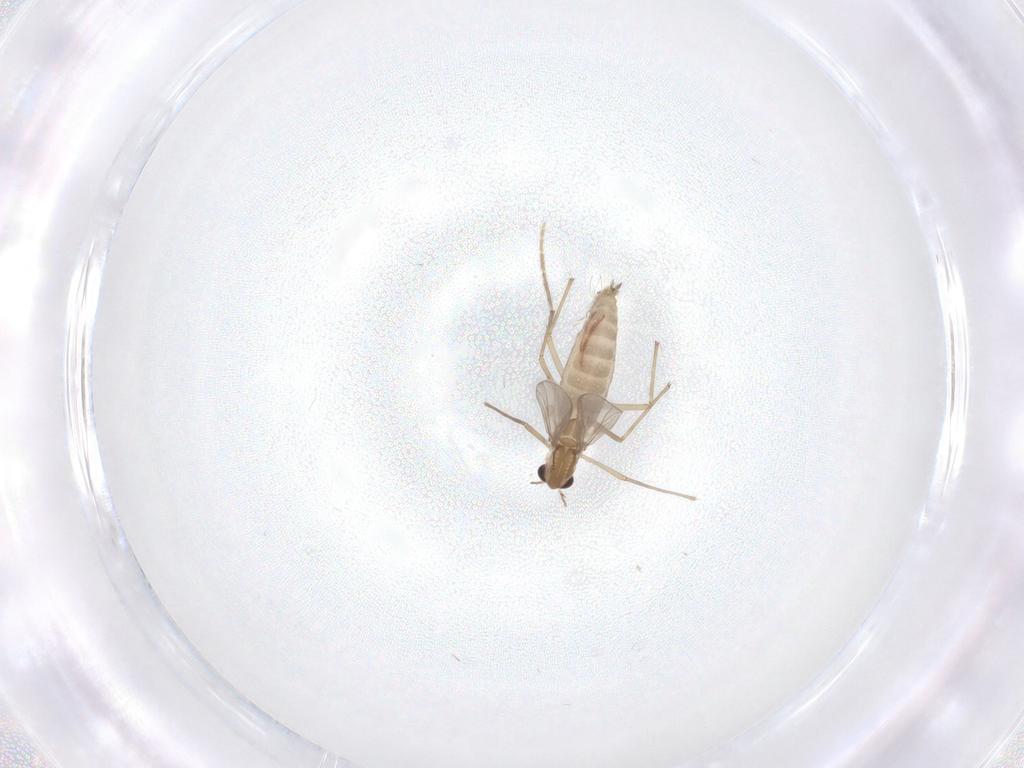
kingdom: Animalia
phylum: Arthropoda
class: Insecta
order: Diptera
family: Chironomidae
